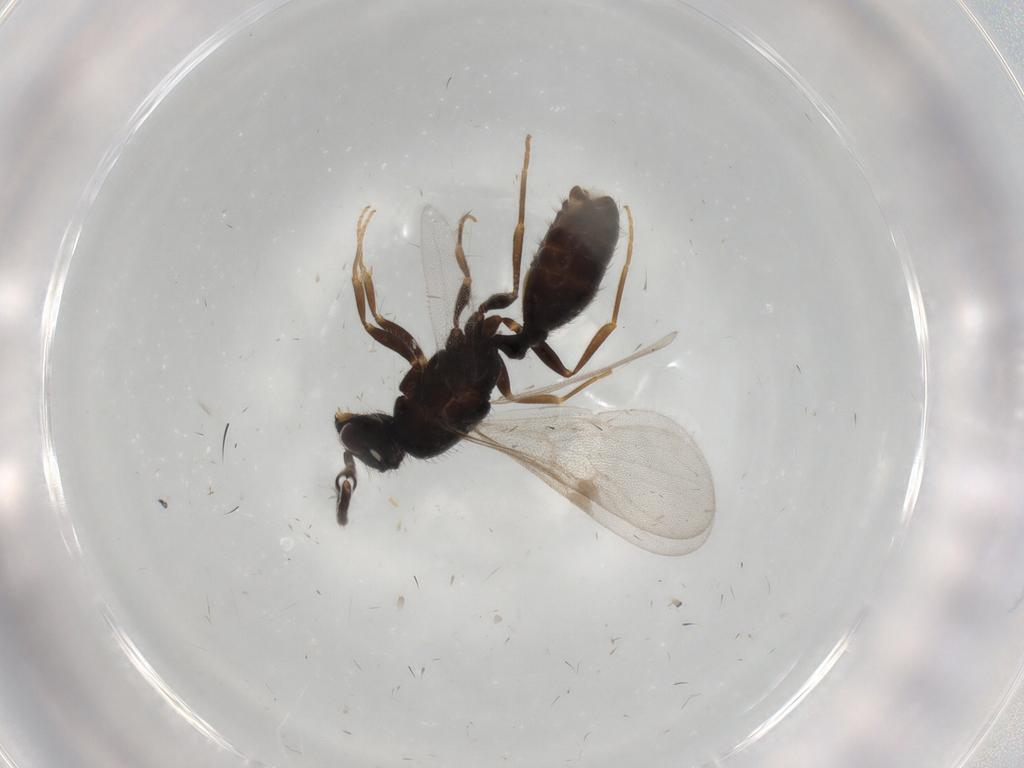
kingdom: Animalia
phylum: Arthropoda
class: Insecta
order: Hymenoptera
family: Formicidae
